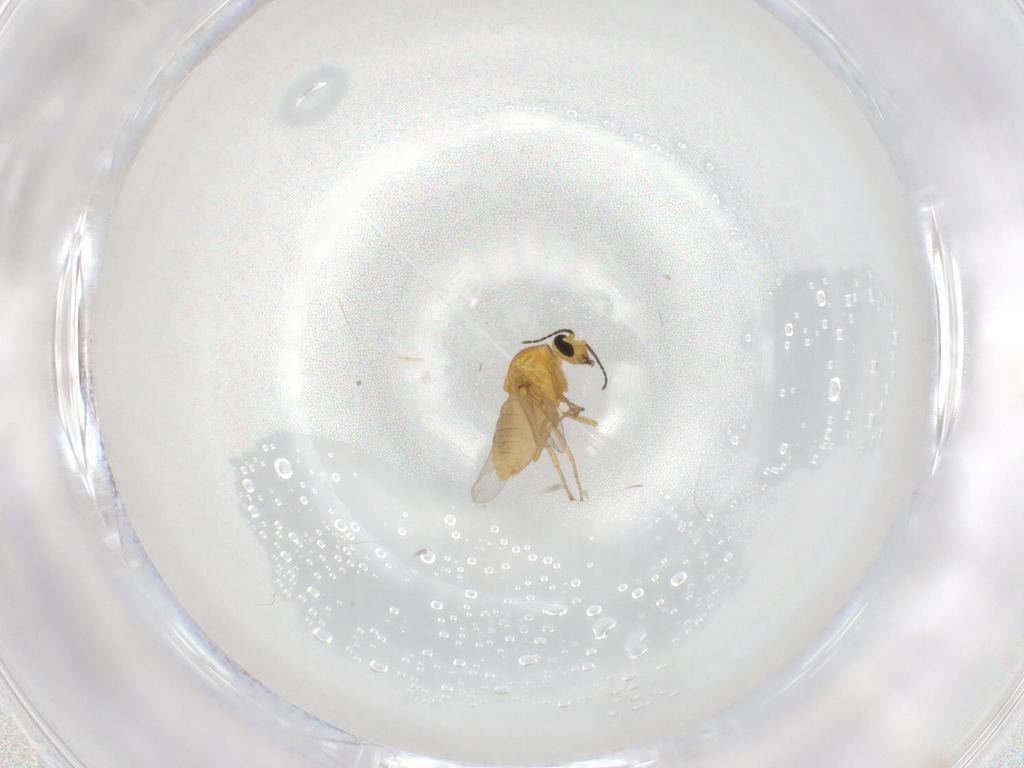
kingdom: Animalia
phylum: Arthropoda
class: Insecta
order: Diptera
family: Ceratopogonidae
